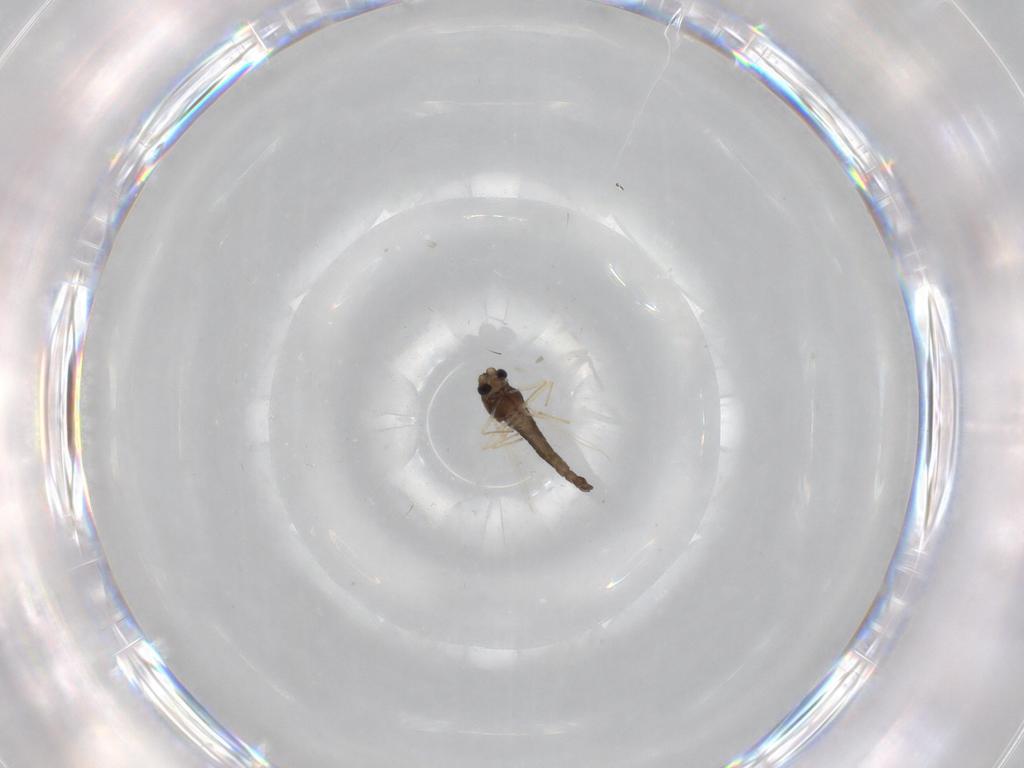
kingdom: Animalia
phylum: Arthropoda
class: Insecta
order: Diptera
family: Chironomidae
